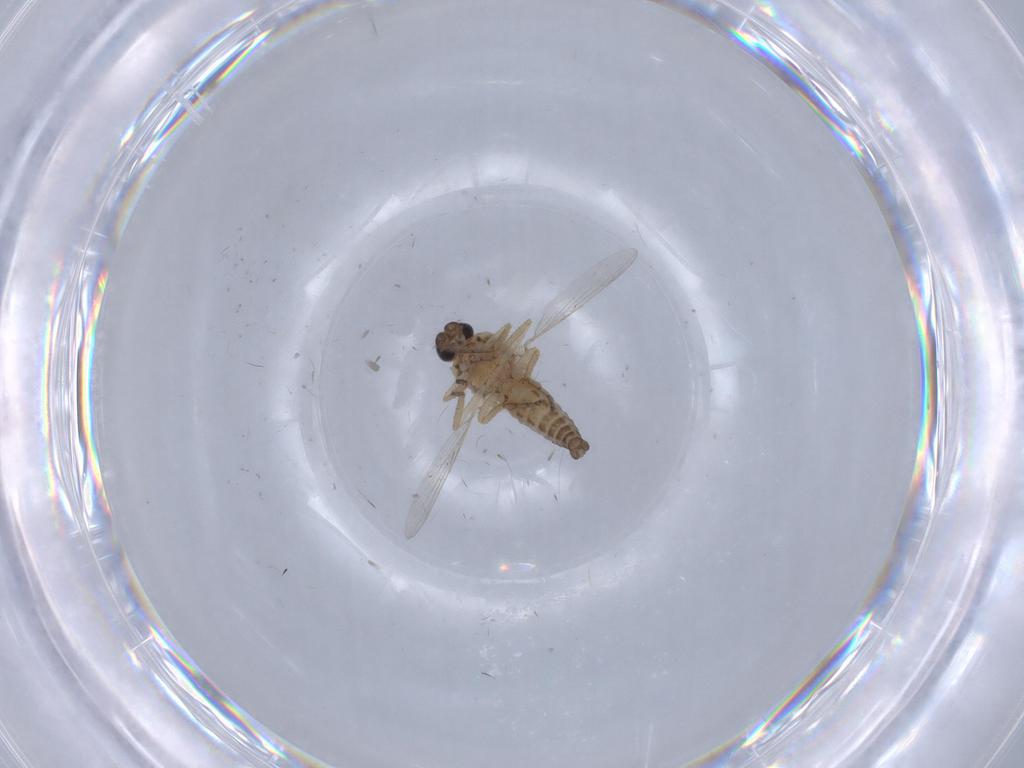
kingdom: Animalia
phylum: Arthropoda
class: Insecta
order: Diptera
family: Ceratopogonidae
